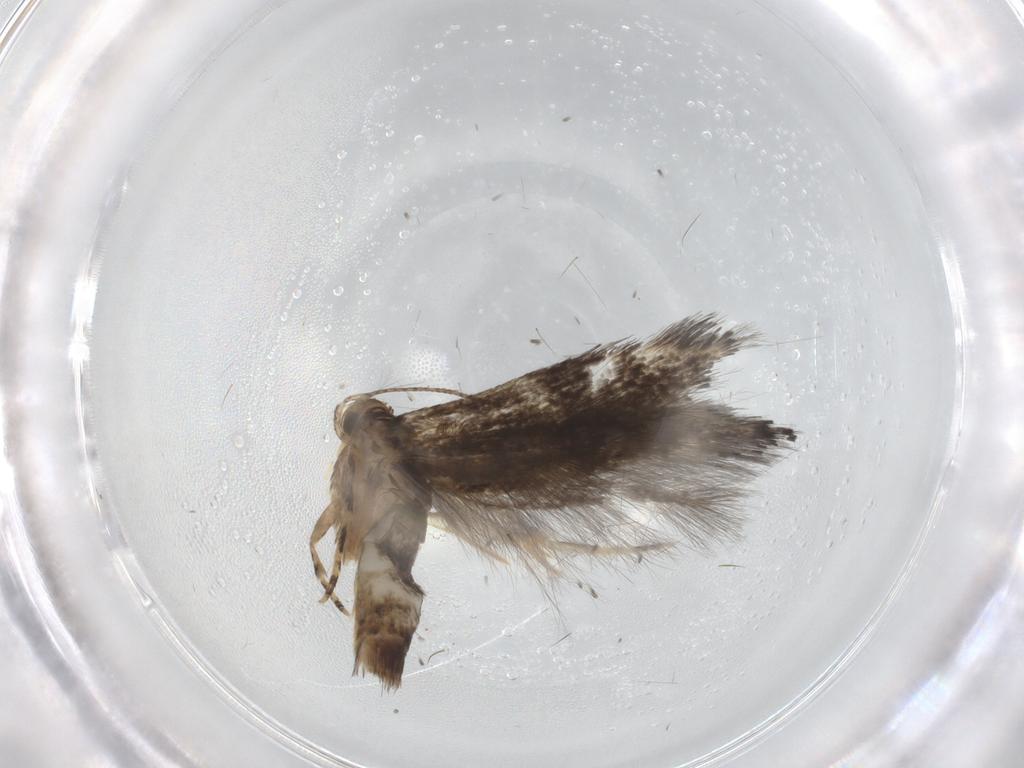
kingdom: Animalia
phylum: Arthropoda
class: Insecta
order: Lepidoptera
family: Elachistidae
